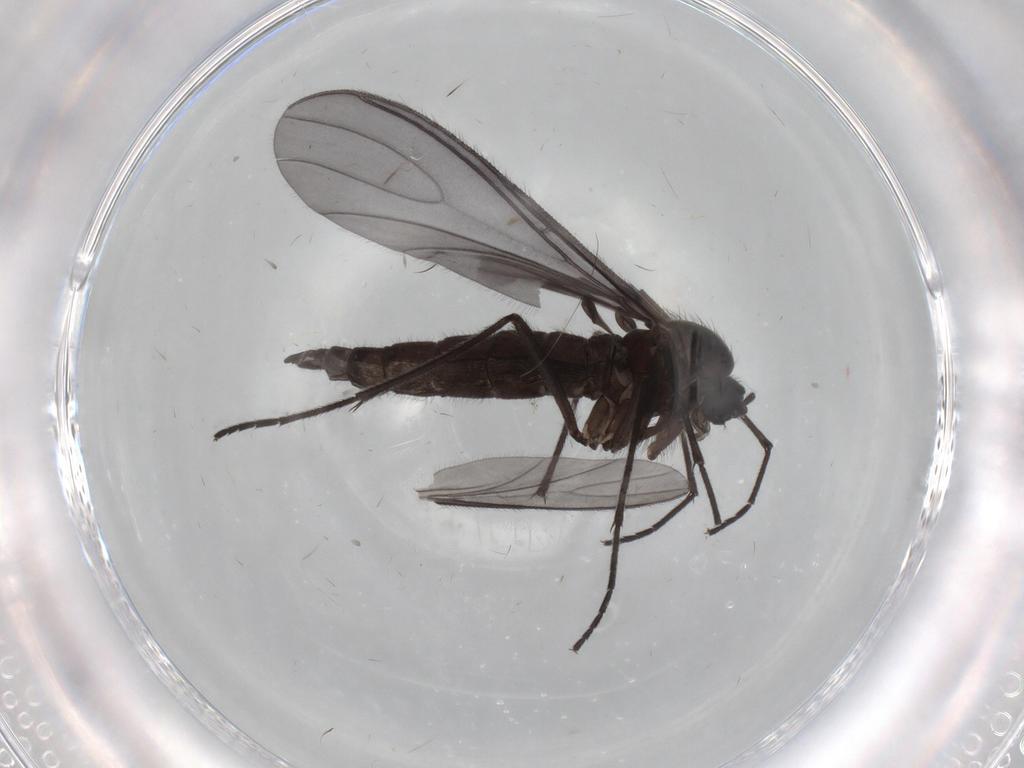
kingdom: Animalia
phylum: Arthropoda
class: Insecta
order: Diptera
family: Sciaridae
